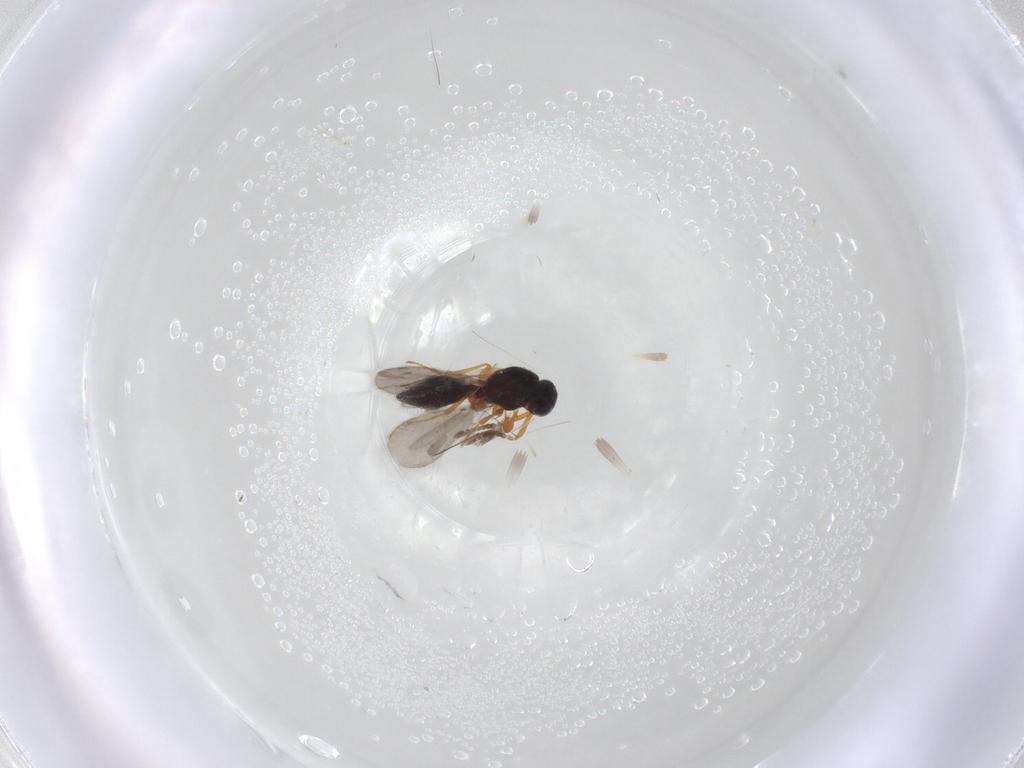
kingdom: Animalia
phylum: Arthropoda
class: Insecta
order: Hymenoptera
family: Platygastridae
